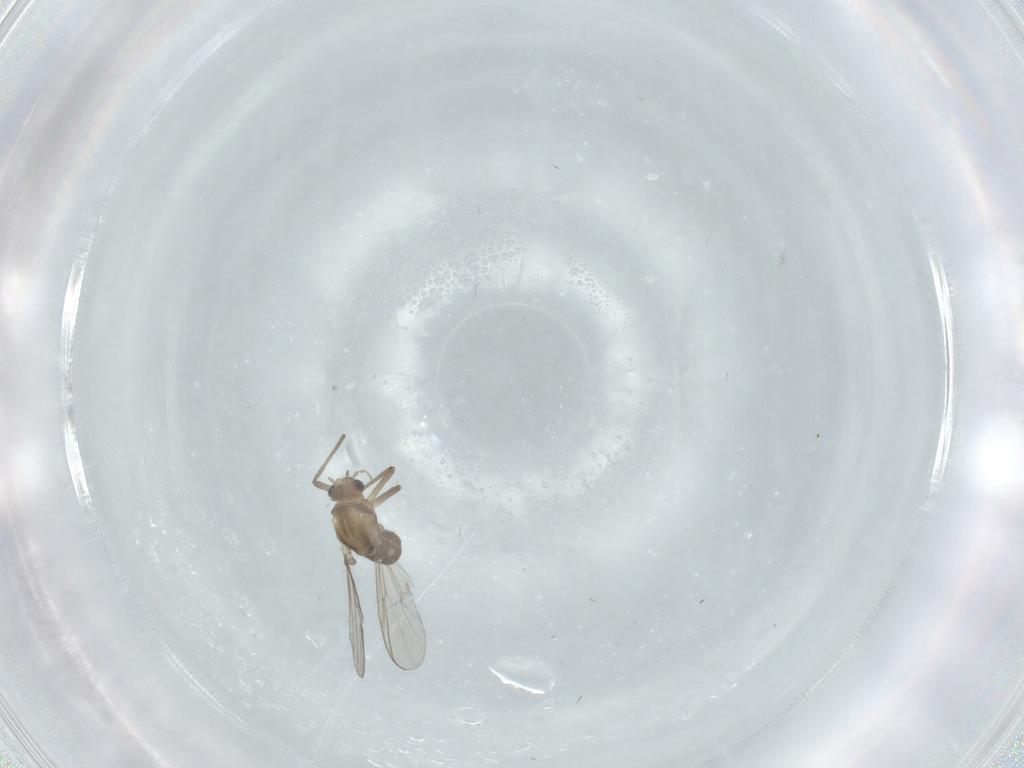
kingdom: Animalia
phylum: Arthropoda
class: Insecta
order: Diptera
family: Chironomidae
